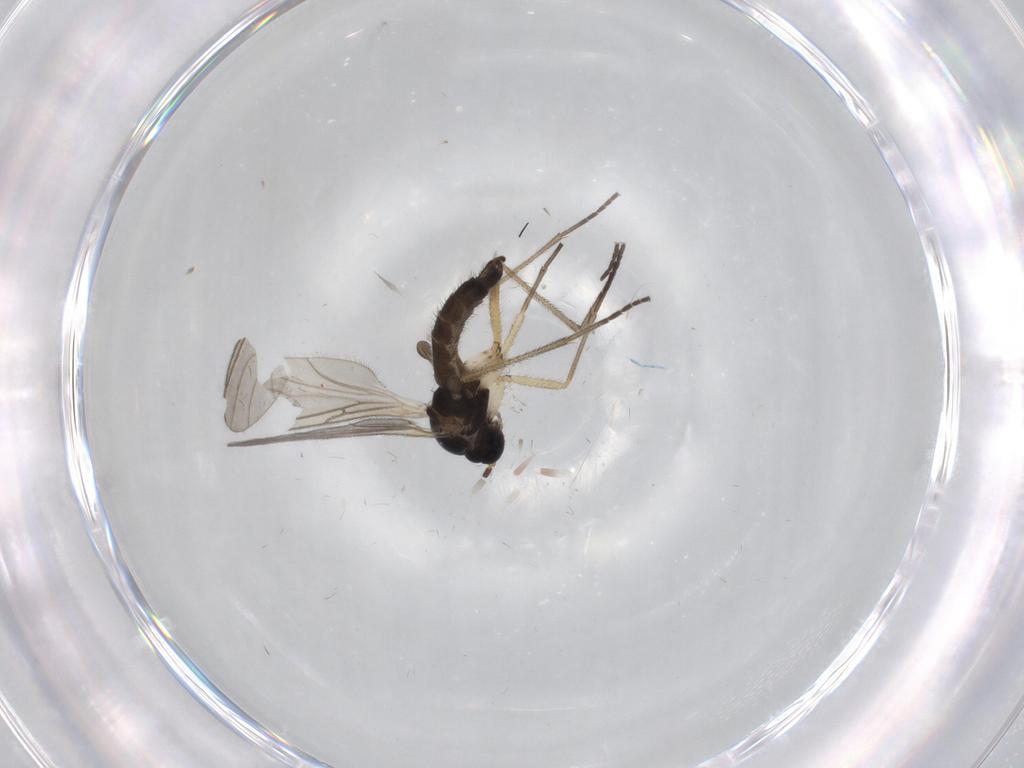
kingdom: Animalia
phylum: Arthropoda
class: Insecta
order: Diptera
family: Sciaridae
